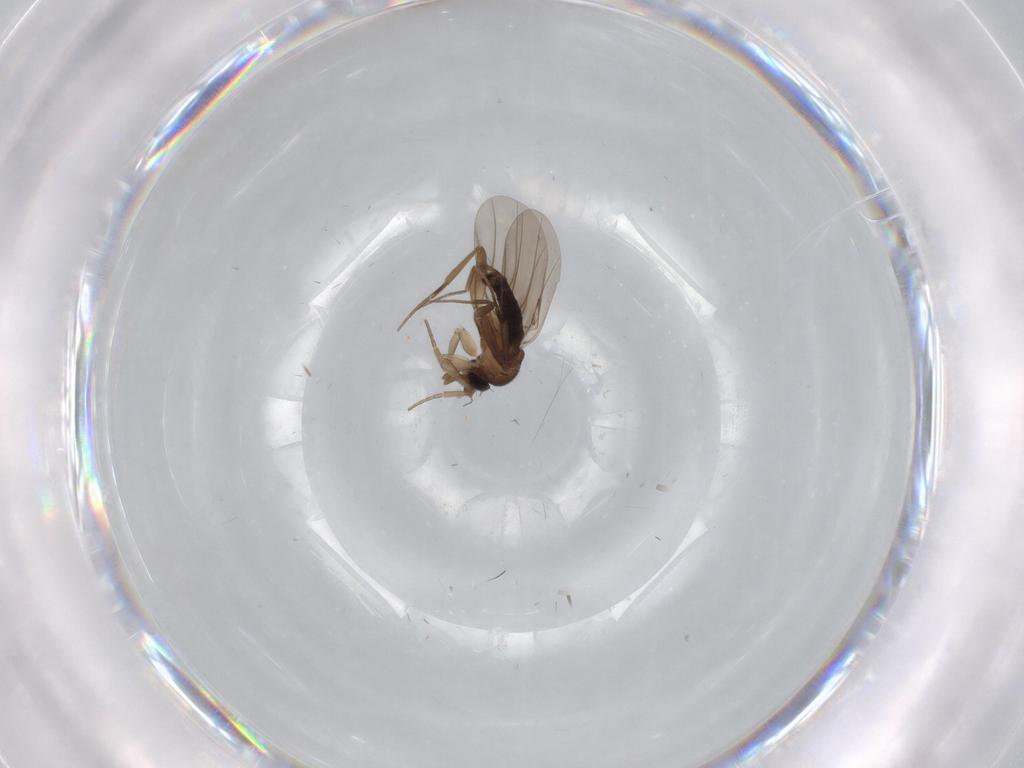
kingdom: Animalia
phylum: Arthropoda
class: Insecta
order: Diptera
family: Phoridae
